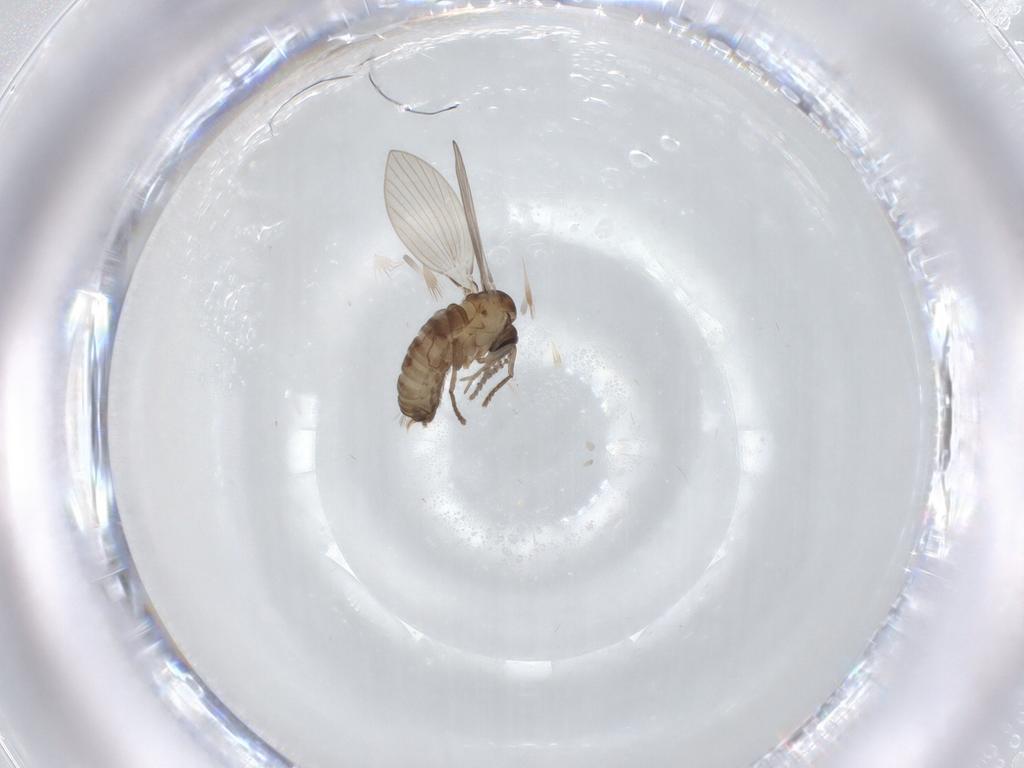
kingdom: Animalia
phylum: Arthropoda
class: Insecta
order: Diptera
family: Psychodidae
